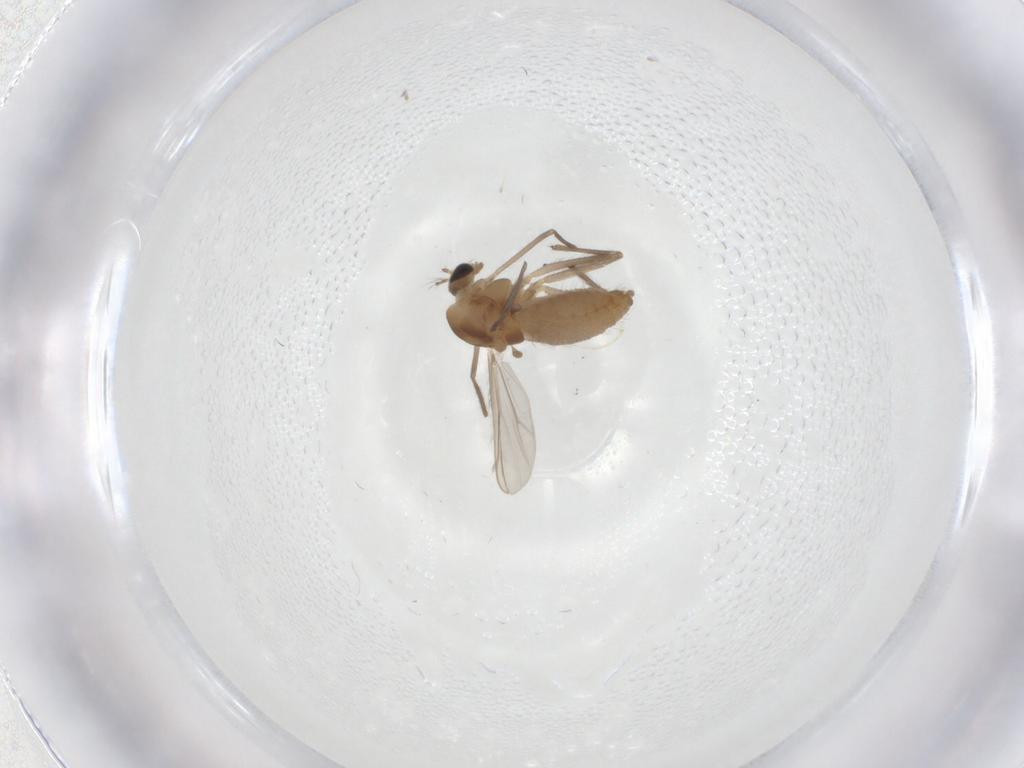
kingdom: Animalia
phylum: Arthropoda
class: Insecta
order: Diptera
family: Chironomidae
